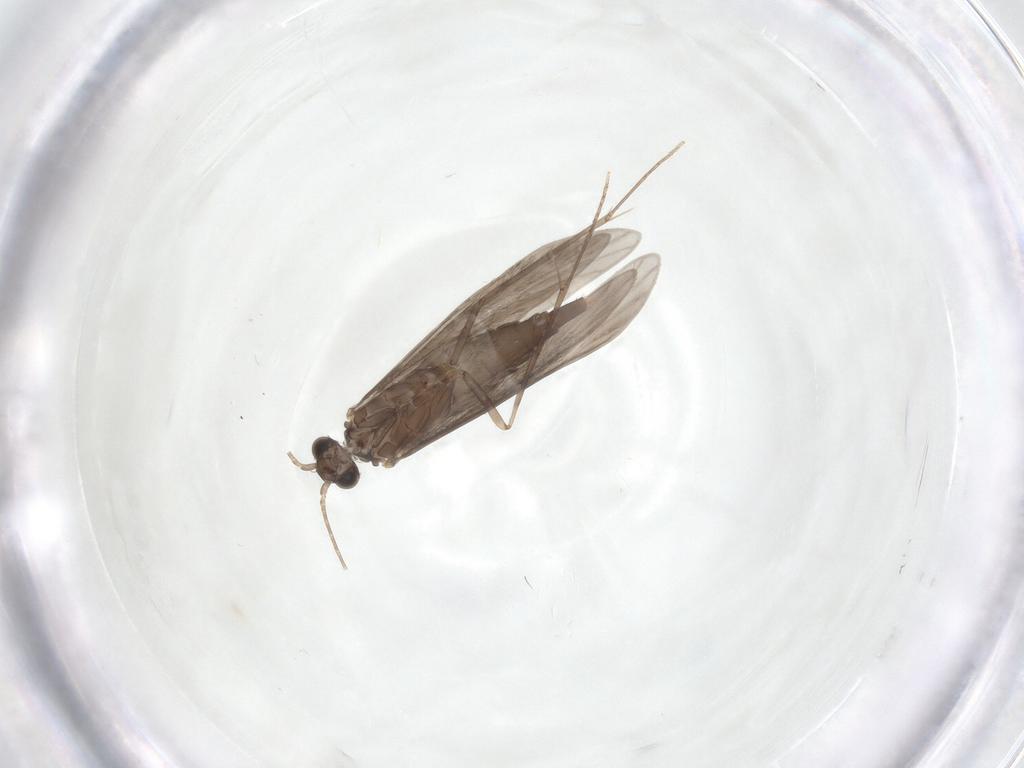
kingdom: Animalia
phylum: Arthropoda
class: Insecta
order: Trichoptera
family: Xiphocentronidae
